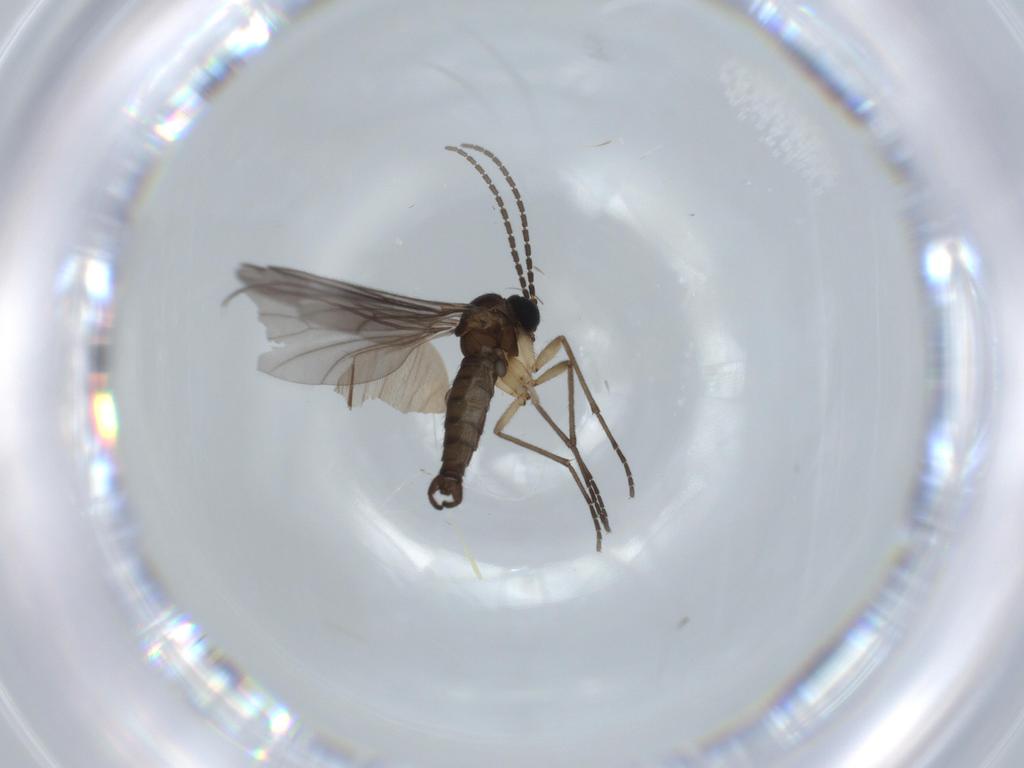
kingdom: Animalia
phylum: Arthropoda
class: Insecta
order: Diptera
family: Sciaridae
